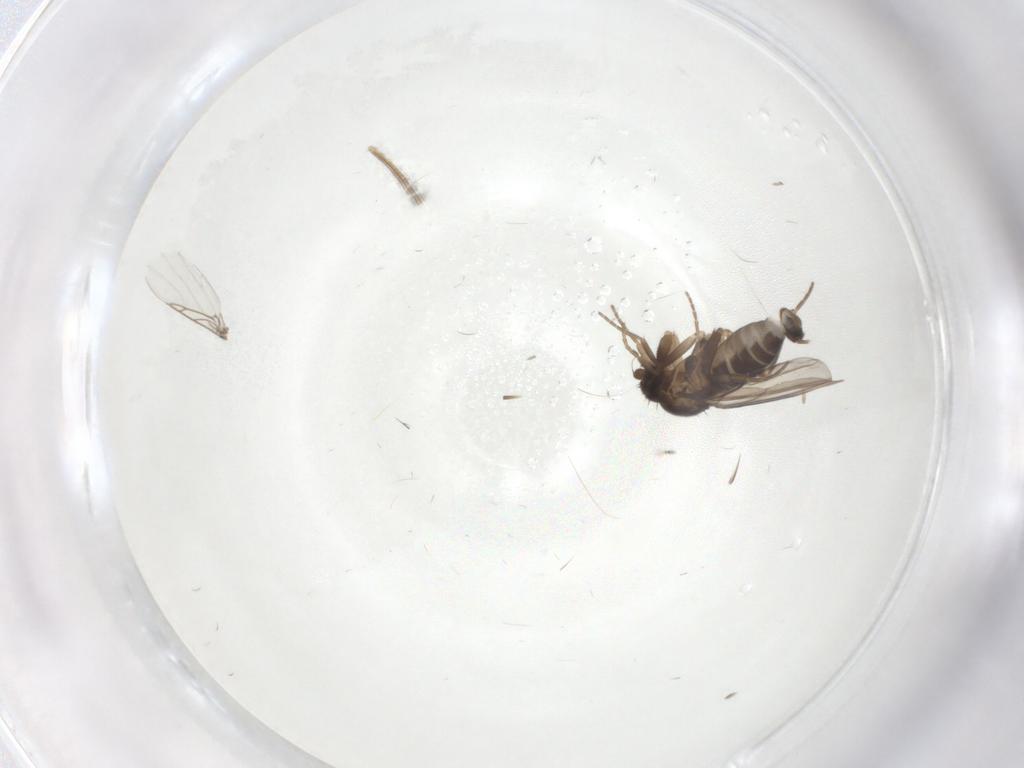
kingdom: Animalia
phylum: Arthropoda
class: Insecta
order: Diptera
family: Phoridae
